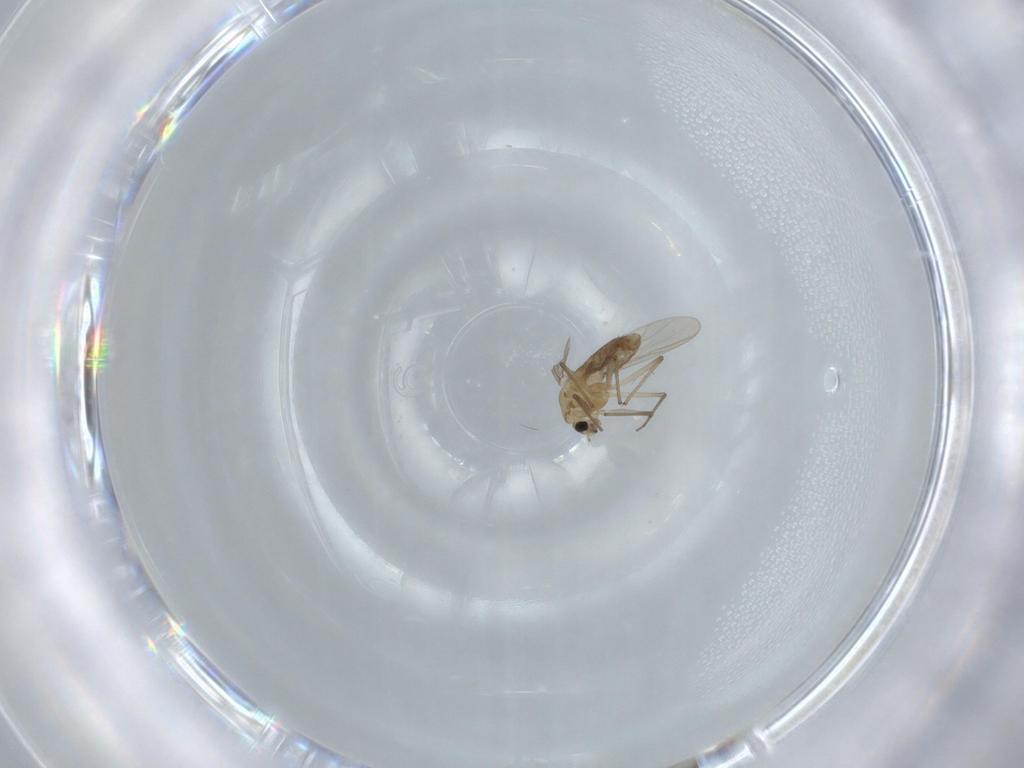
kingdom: Animalia
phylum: Arthropoda
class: Insecta
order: Diptera
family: Chironomidae
